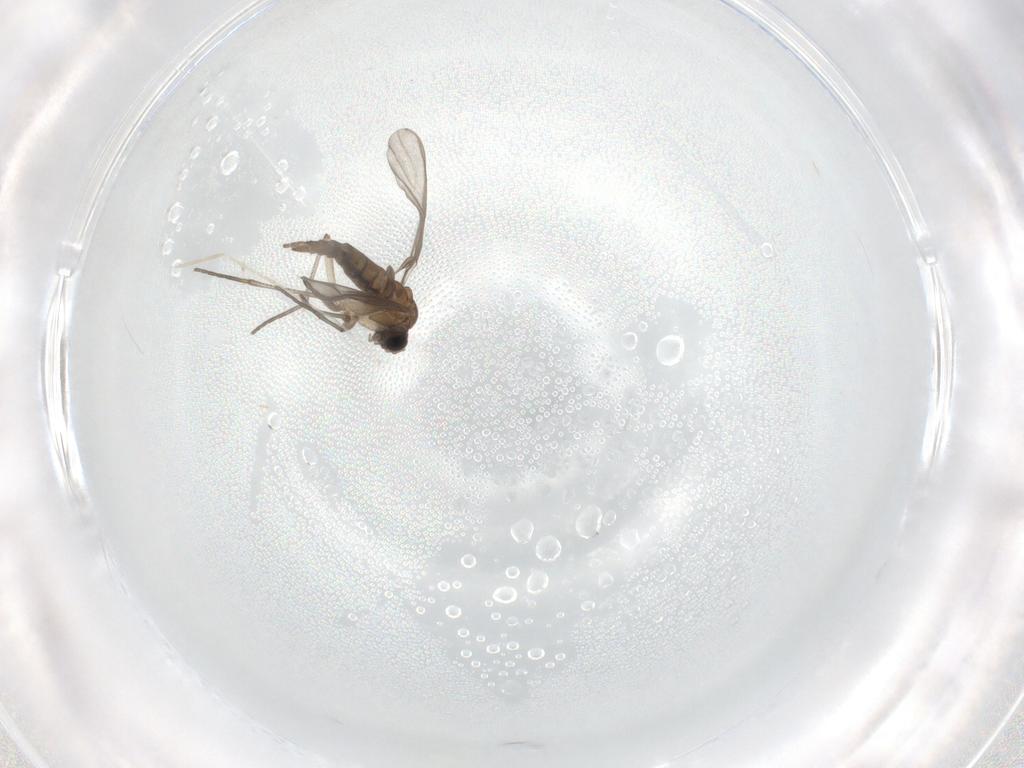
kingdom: Animalia
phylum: Arthropoda
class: Insecta
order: Diptera
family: Sciaridae
